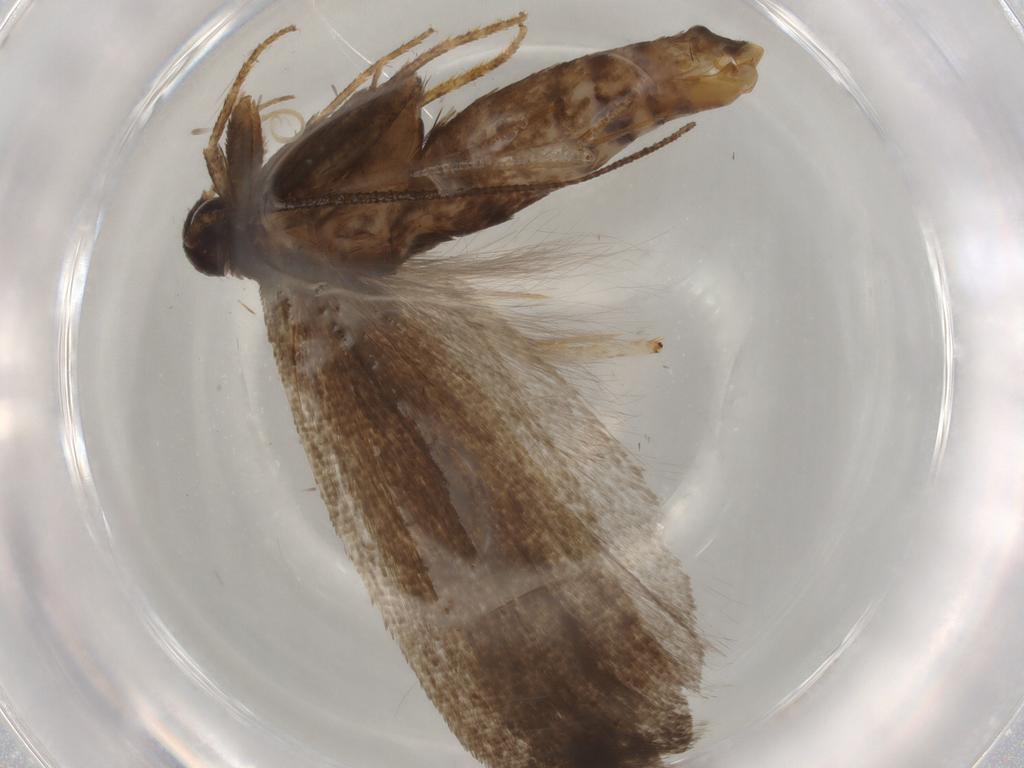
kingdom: Animalia
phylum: Arthropoda
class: Insecta
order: Lepidoptera
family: Gelechiidae
